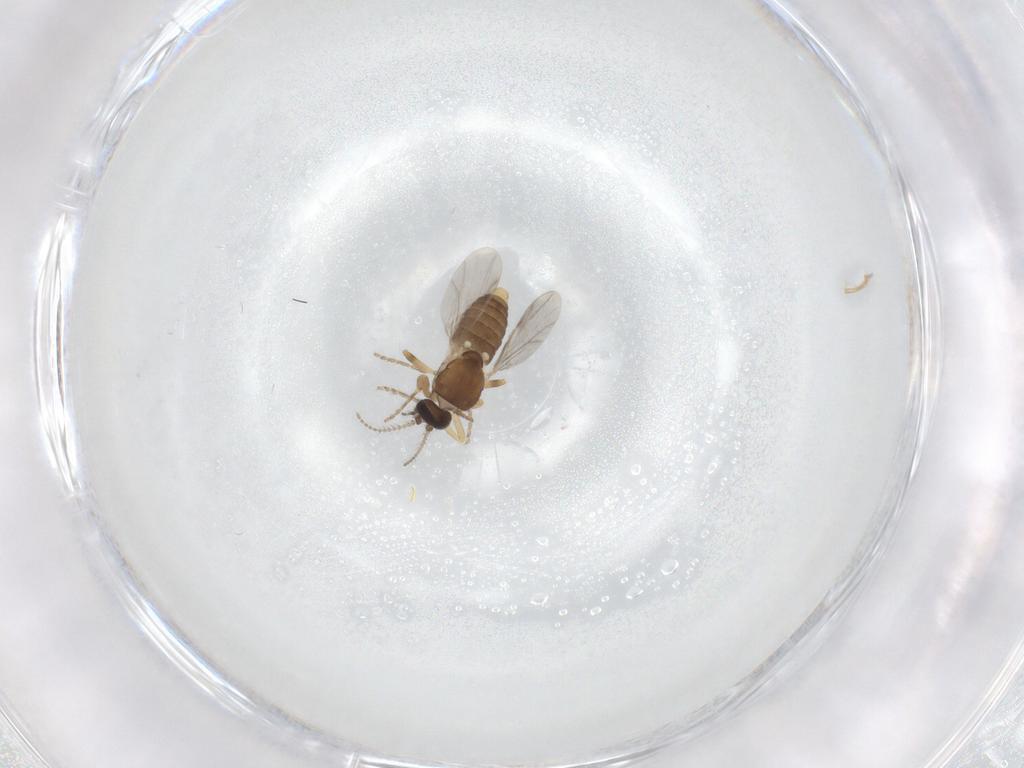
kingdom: Animalia
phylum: Arthropoda
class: Insecta
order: Diptera
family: Ceratopogonidae
